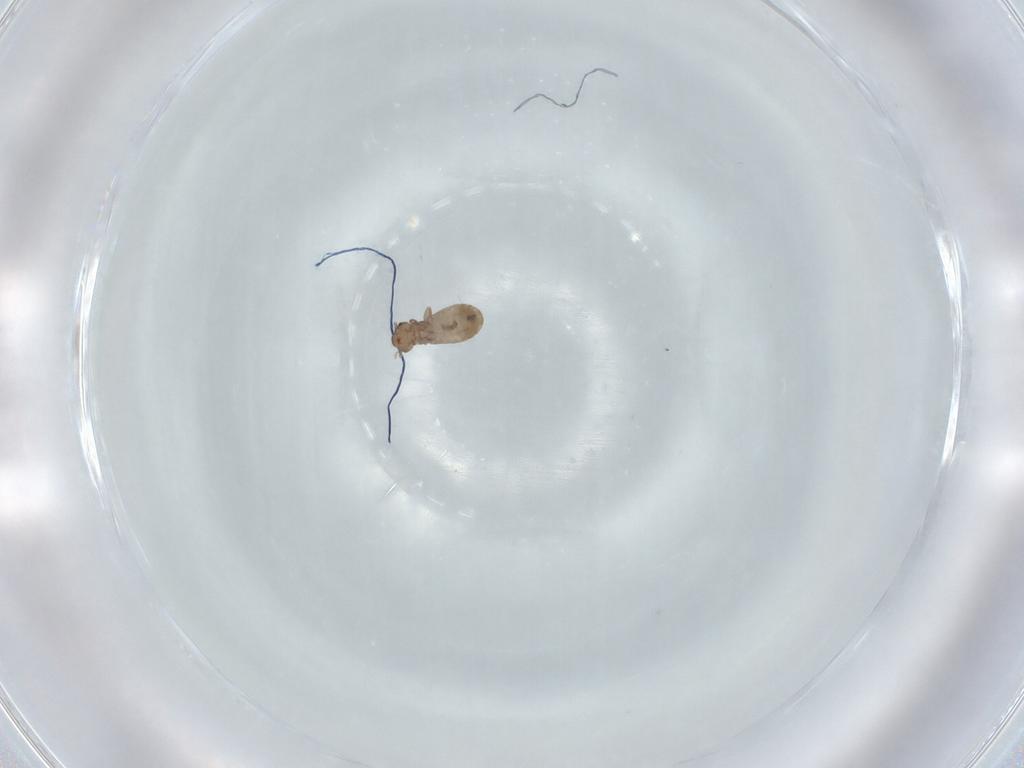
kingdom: Animalia
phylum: Arthropoda
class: Insecta
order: Psocodea
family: Liposcelididae
